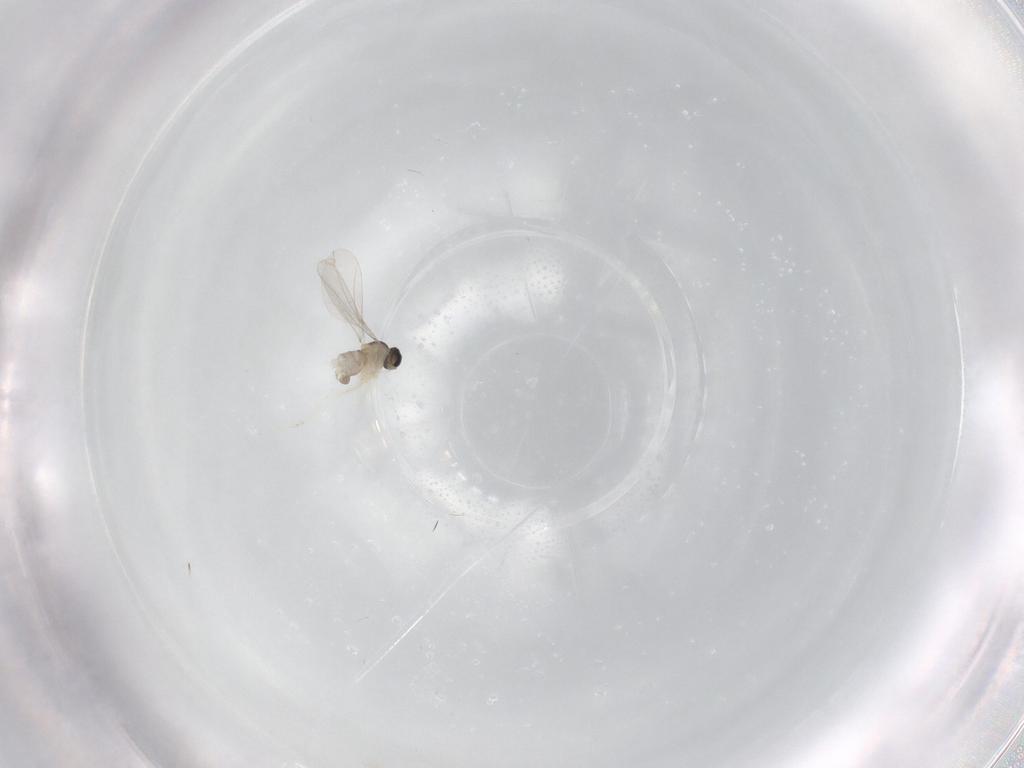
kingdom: Animalia
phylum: Arthropoda
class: Insecta
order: Diptera
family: Cecidomyiidae
